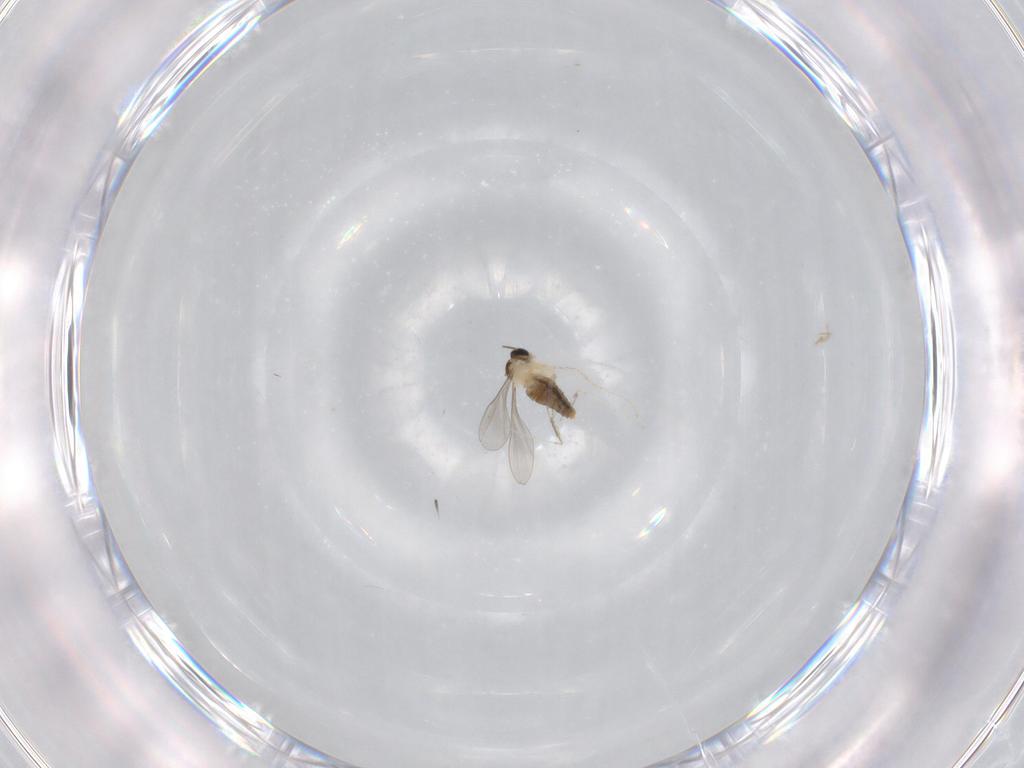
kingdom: Animalia
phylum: Arthropoda
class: Insecta
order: Diptera
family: Cecidomyiidae
